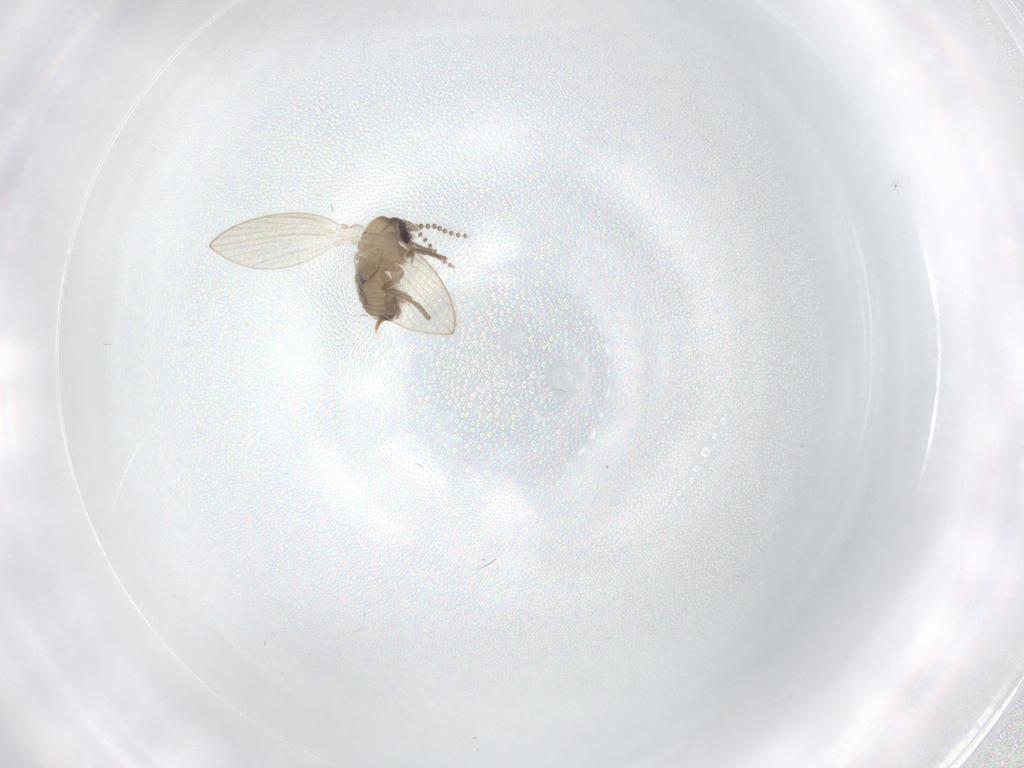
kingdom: Animalia
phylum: Arthropoda
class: Insecta
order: Diptera
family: Psychodidae
